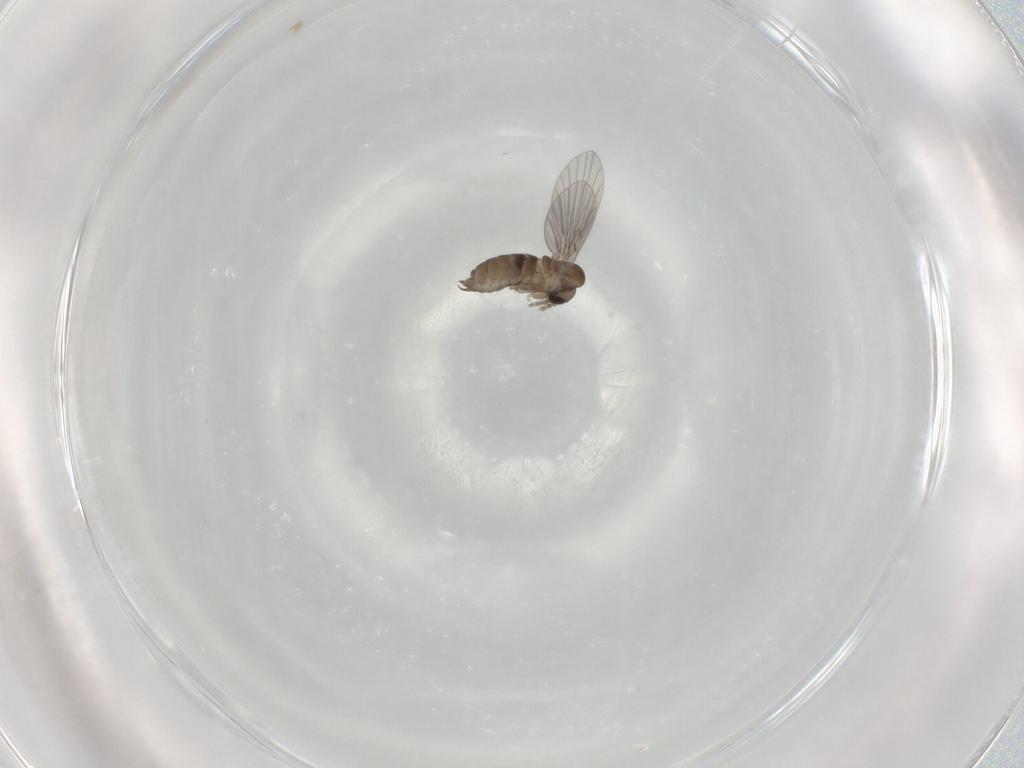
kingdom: Animalia
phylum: Arthropoda
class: Insecta
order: Diptera
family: Sciaridae
